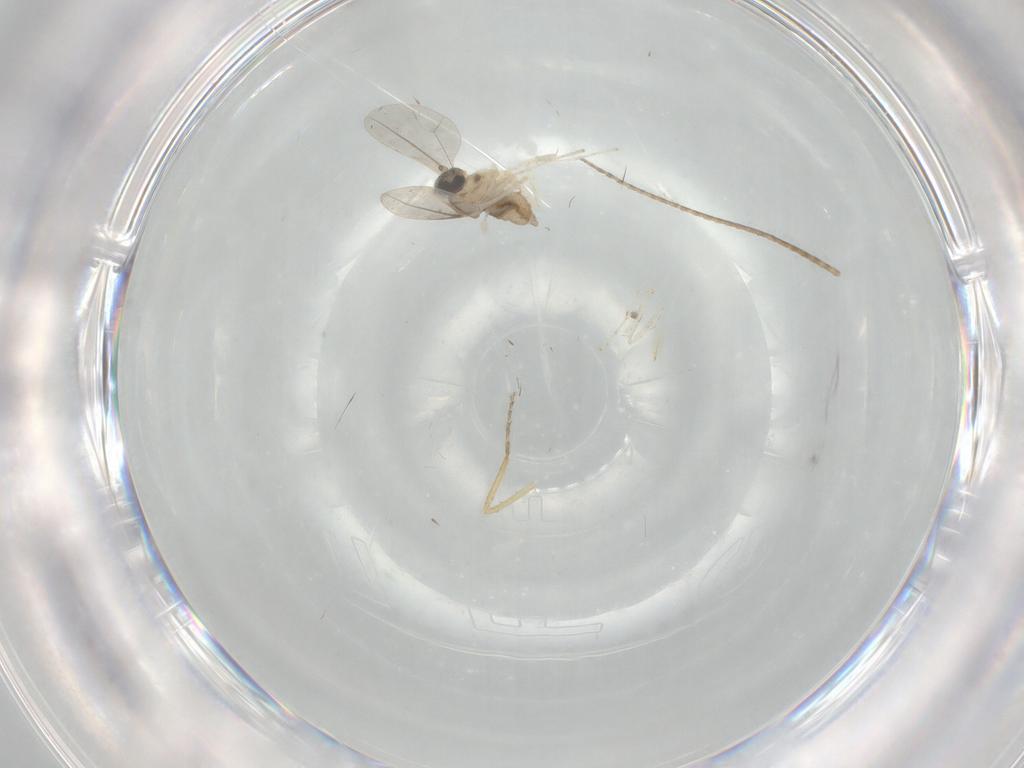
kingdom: Animalia
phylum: Arthropoda
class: Insecta
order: Diptera
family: Ceratopogonidae
